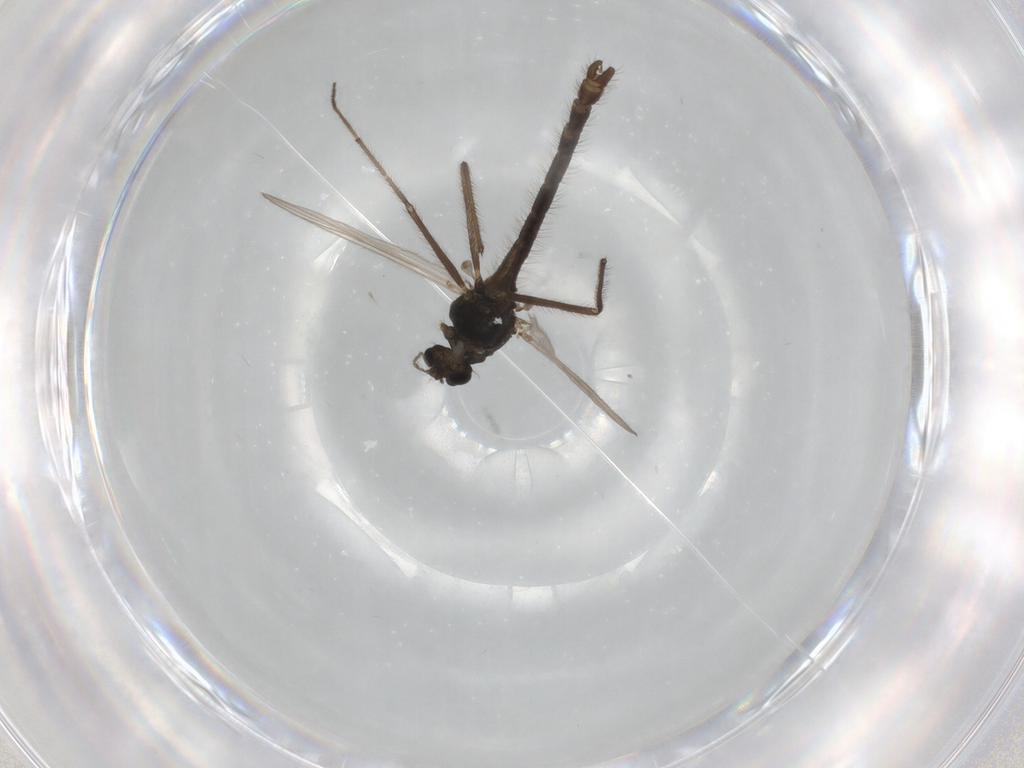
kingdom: Animalia
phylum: Arthropoda
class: Insecta
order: Diptera
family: Chironomidae
